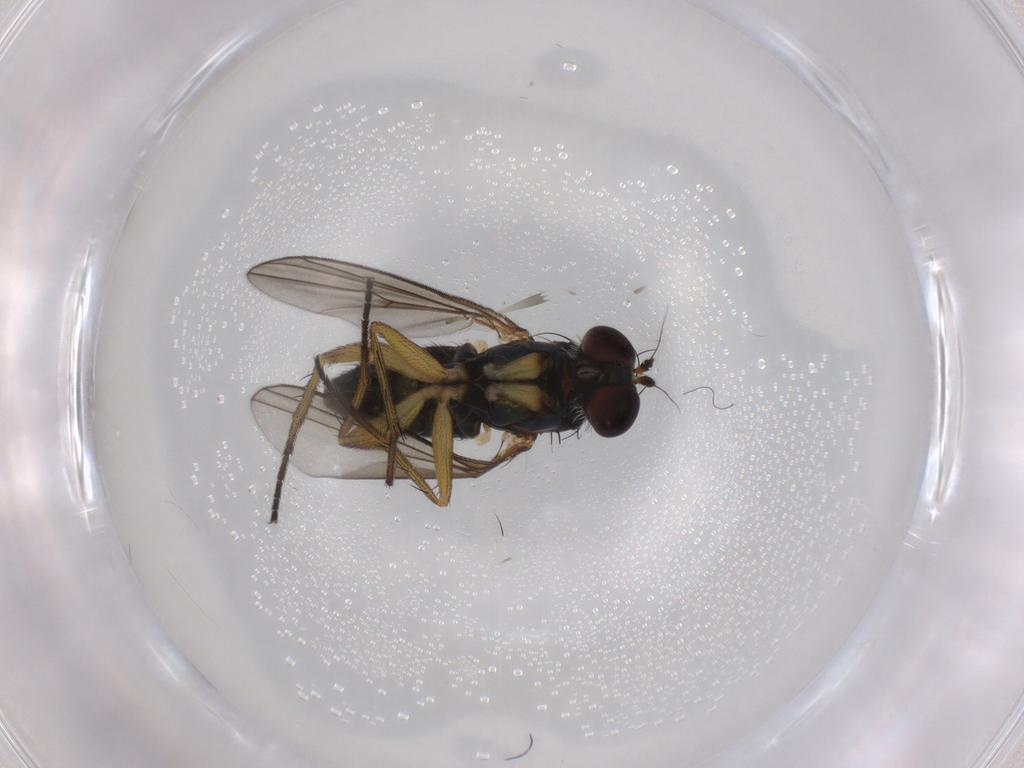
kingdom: Animalia
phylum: Arthropoda
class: Insecta
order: Diptera
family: Dolichopodidae
